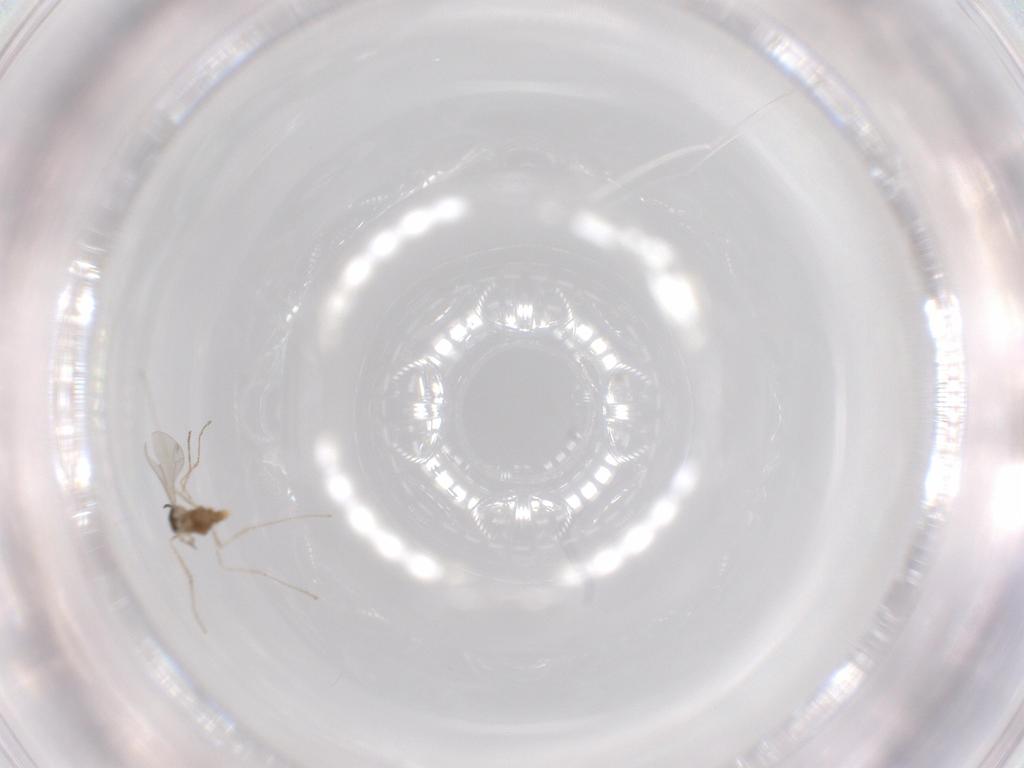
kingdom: Animalia
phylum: Arthropoda
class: Insecta
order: Diptera
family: Cecidomyiidae
